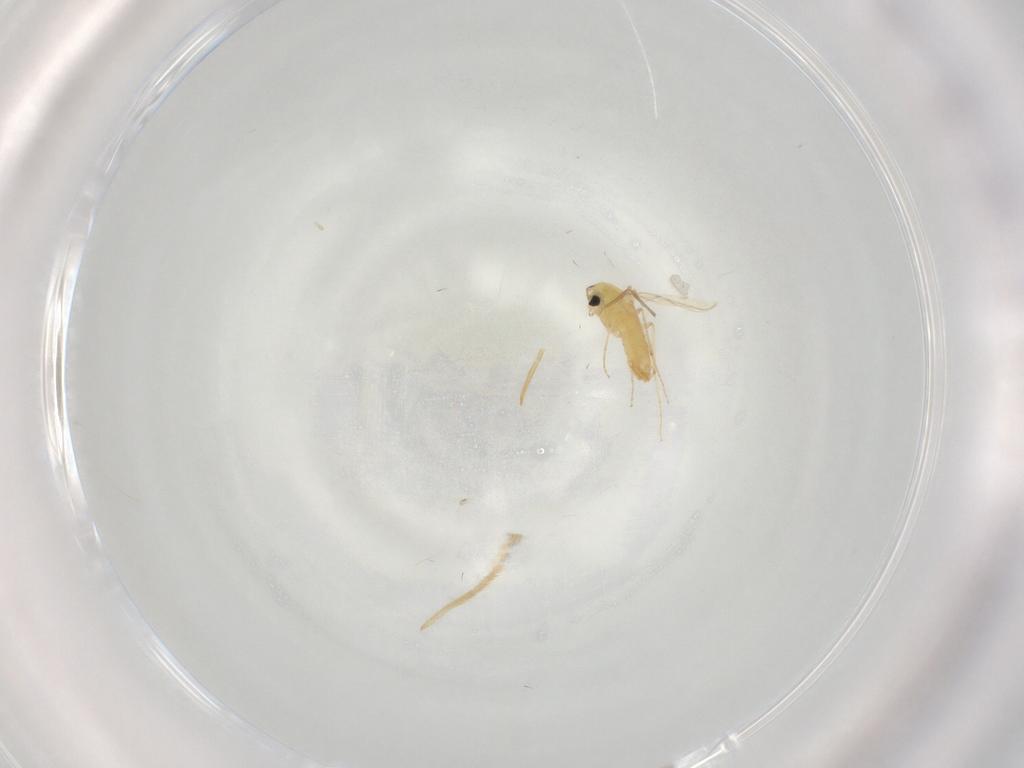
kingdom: Animalia
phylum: Arthropoda
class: Insecta
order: Diptera
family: Chironomidae
